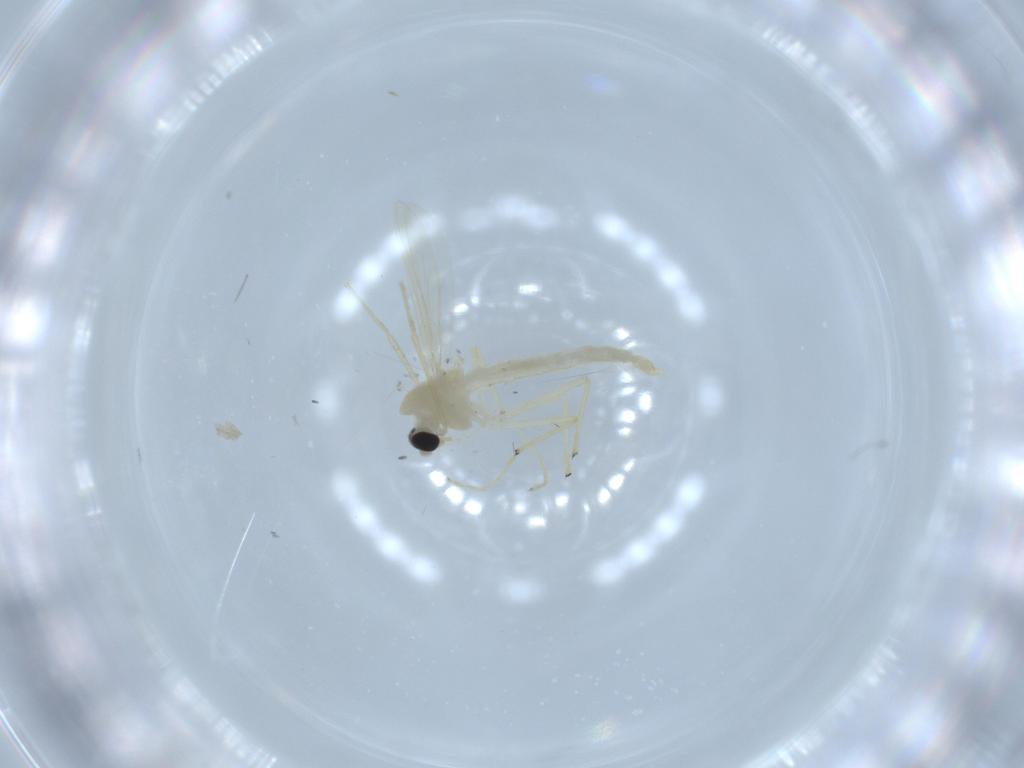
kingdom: Animalia
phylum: Arthropoda
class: Insecta
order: Diptera
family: Chironomidae
